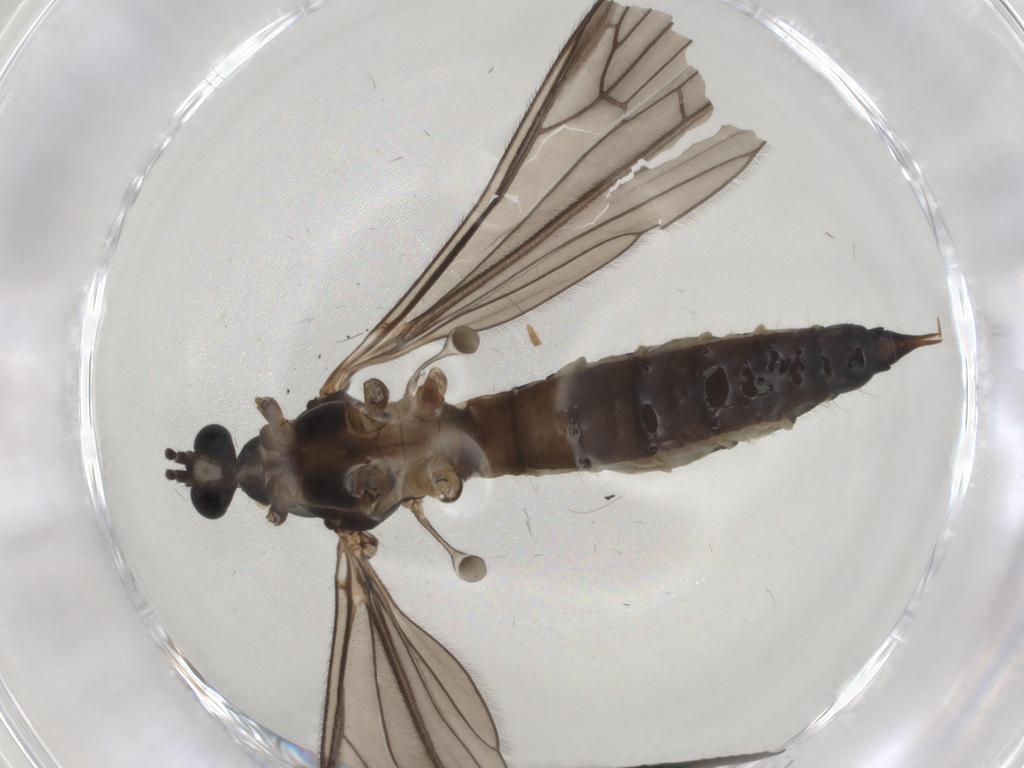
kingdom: Animalia
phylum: Arthropoda
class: Insecta
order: Diptera
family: Limoniidae
